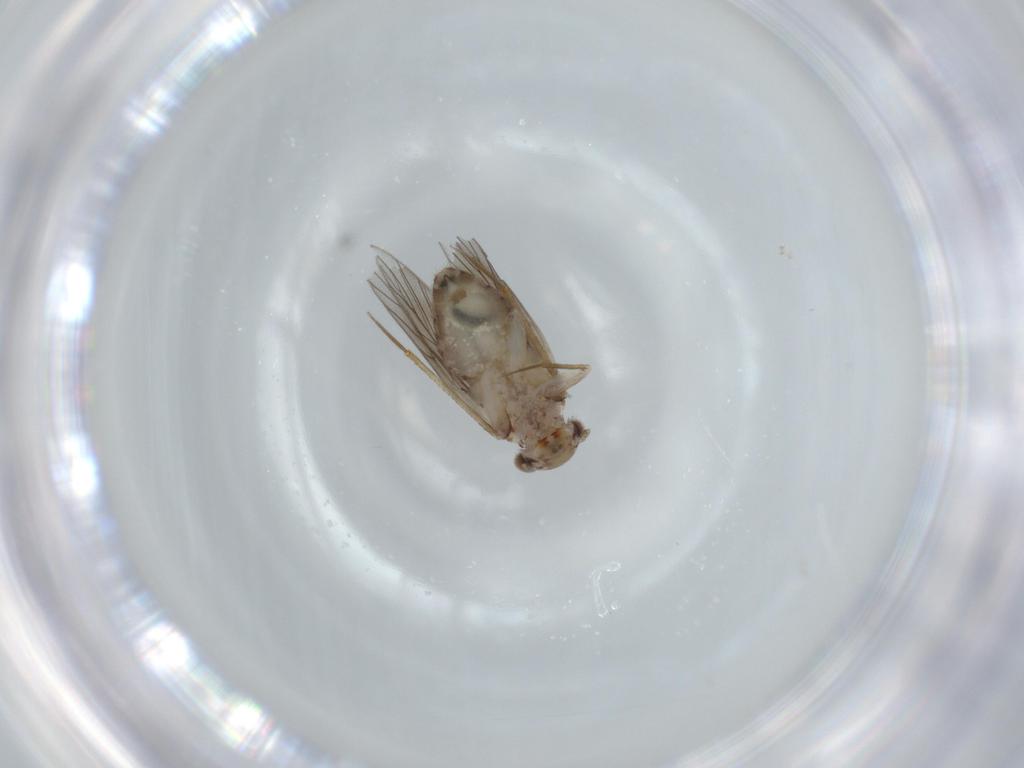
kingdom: Animalia
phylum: Arthropoda
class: Insecta
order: Psocodea
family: Lepidopsocidae
